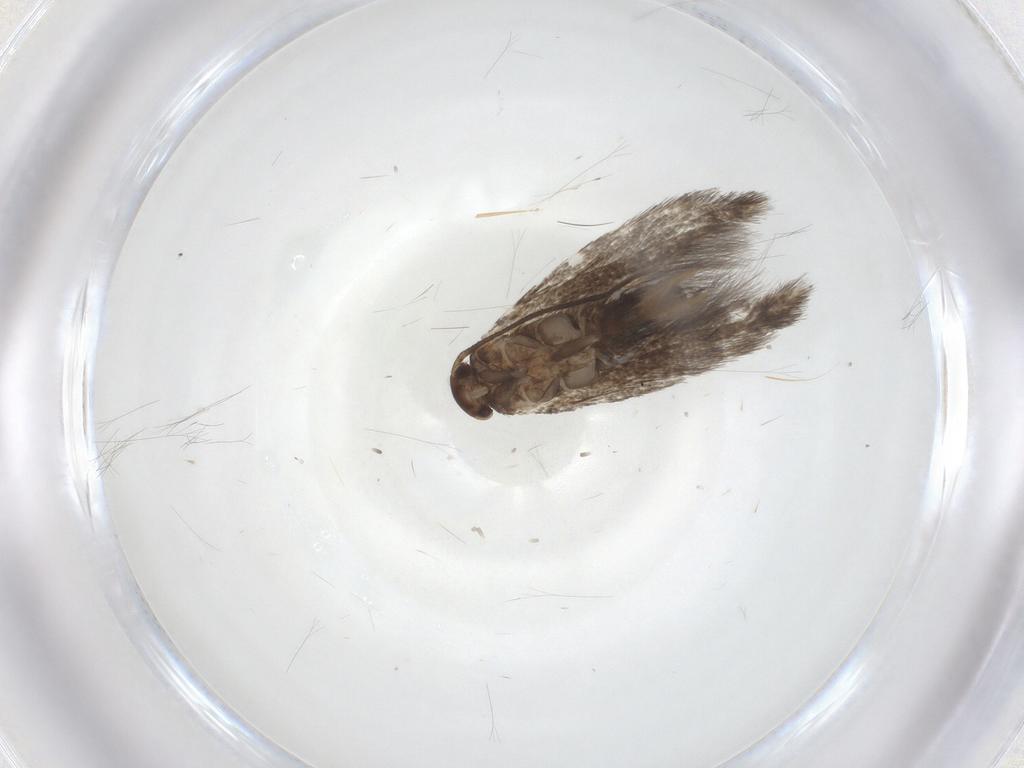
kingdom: Animalia
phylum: Arthropoda
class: Insecta
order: Lepidoptera
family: Elachistidae
